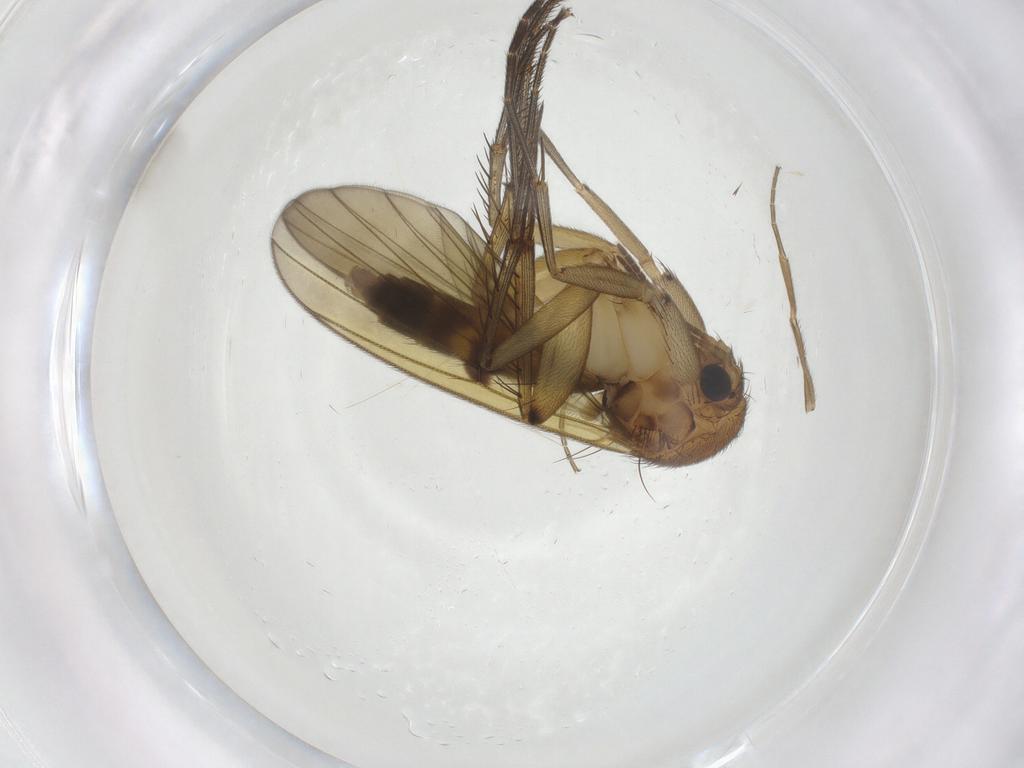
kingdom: Animalia
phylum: Arthropoda
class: Insecta
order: Diptera
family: Mycetophilidae
